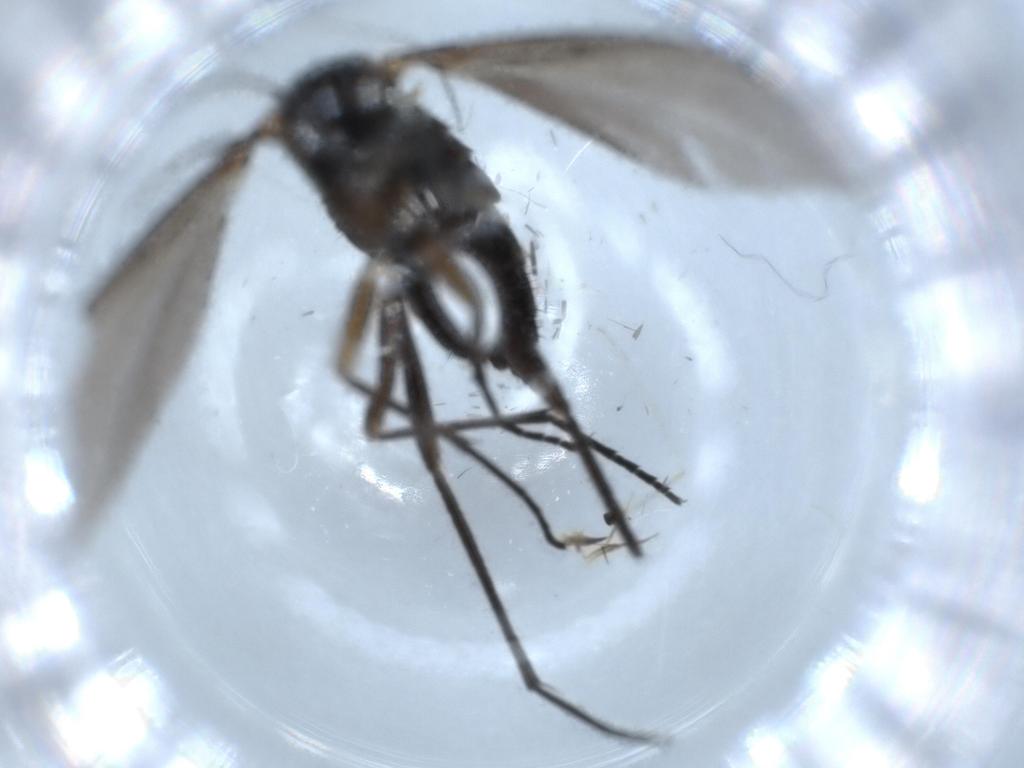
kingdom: Animalia
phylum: Arthropoda
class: Insecta
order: Diptera
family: Sciaridae
